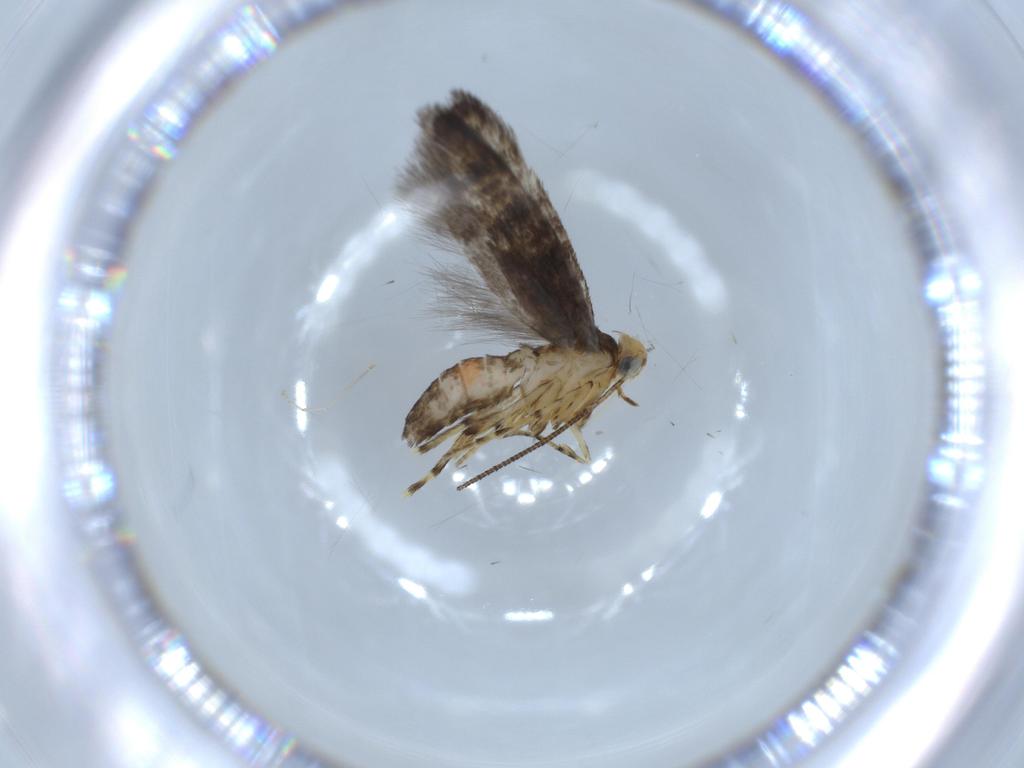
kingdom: Animalia
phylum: Arthropoda
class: Insecta
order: Lepidoptera
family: Argyresthiidae
